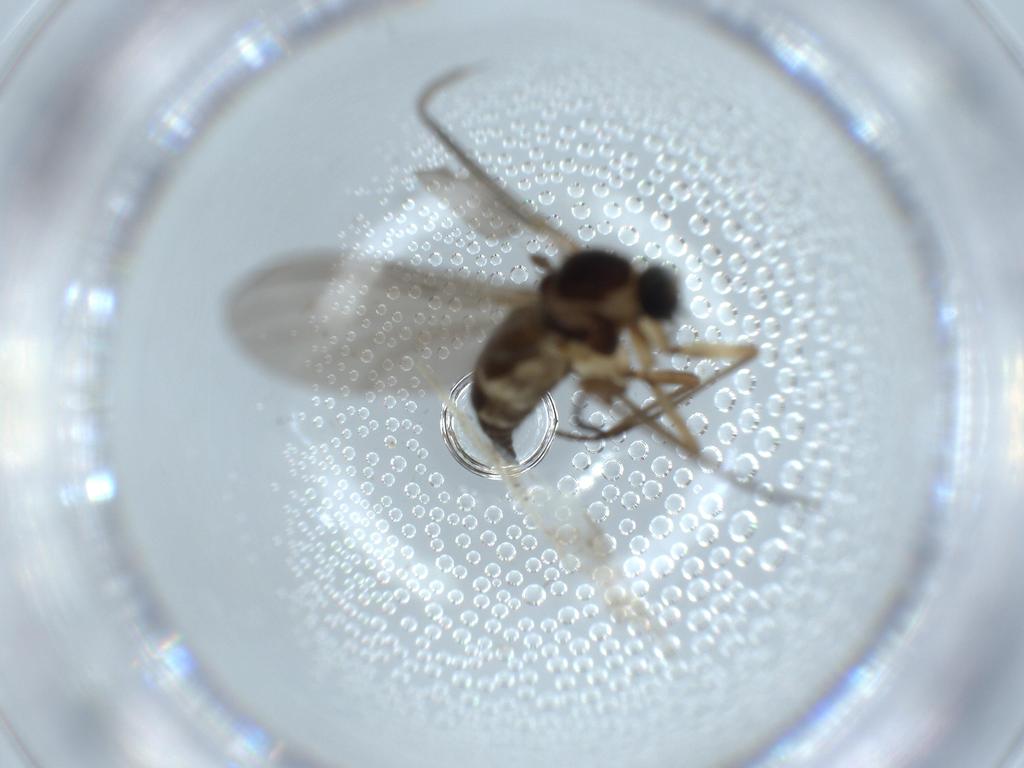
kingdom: Animalia
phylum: Arthropoda
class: Insecta
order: Diptera
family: Sciaridae
